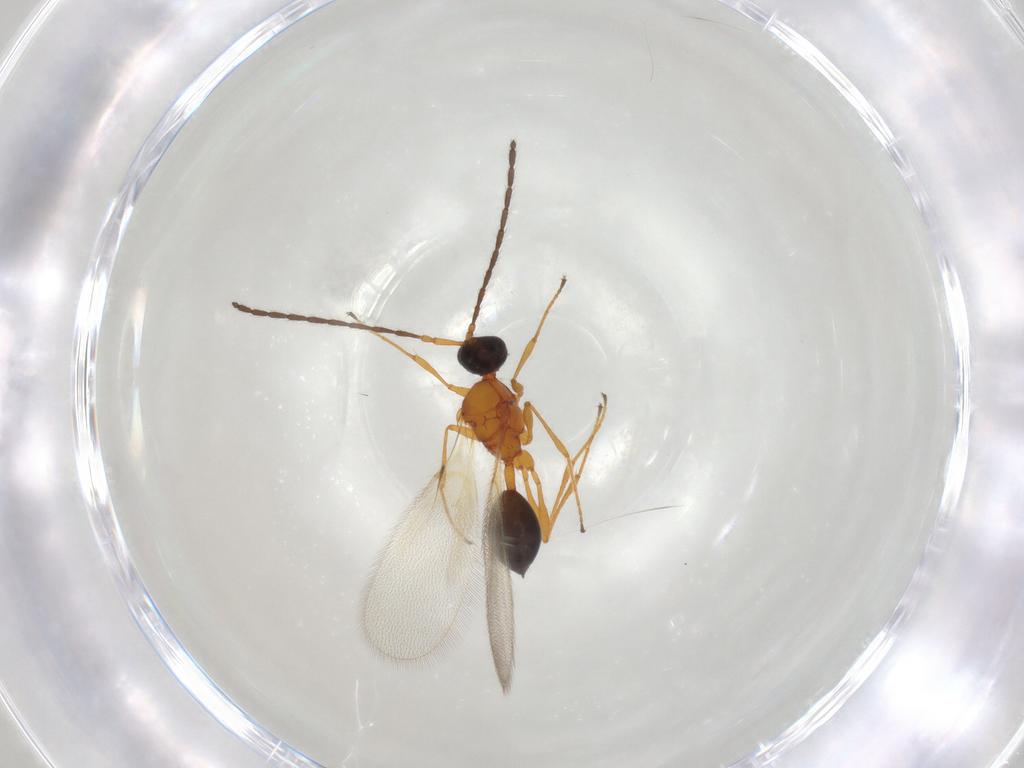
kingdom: Animalia
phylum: Arthropoda
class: Insecta
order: Hymenoptera
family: Diapriidae
